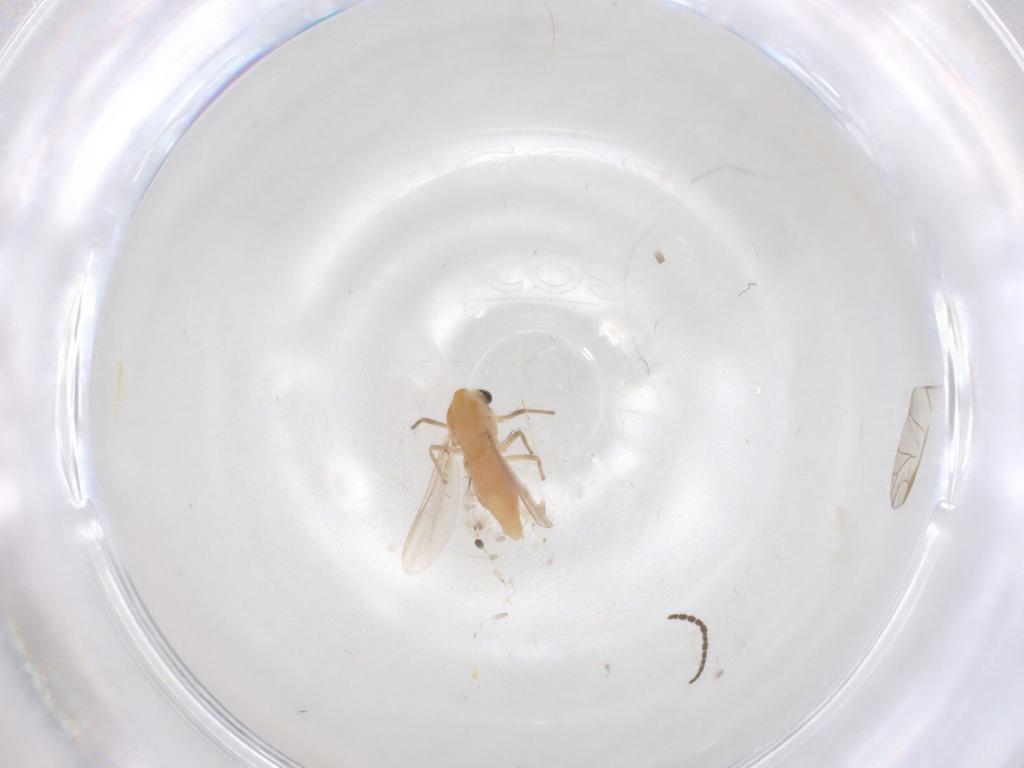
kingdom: Animalia
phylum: Arthropoda
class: Insecta
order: Diptera
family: Sciaridae
